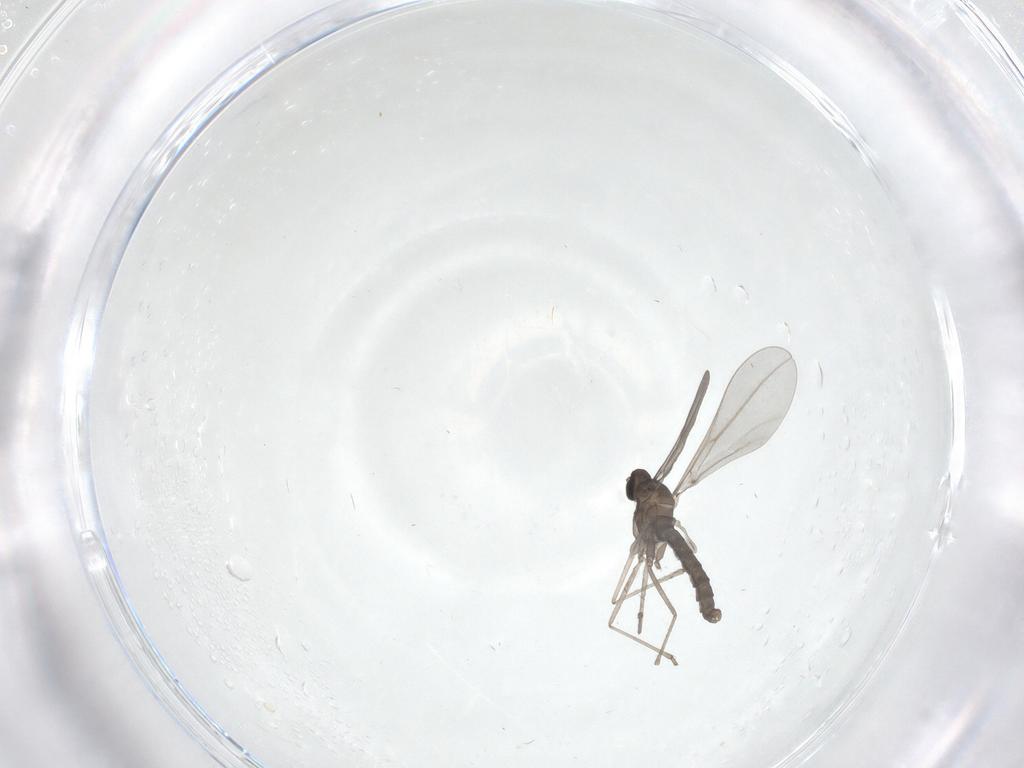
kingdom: Animalia
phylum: Arthropoda
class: Insecta
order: Diptera
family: Cecidomyiidae
